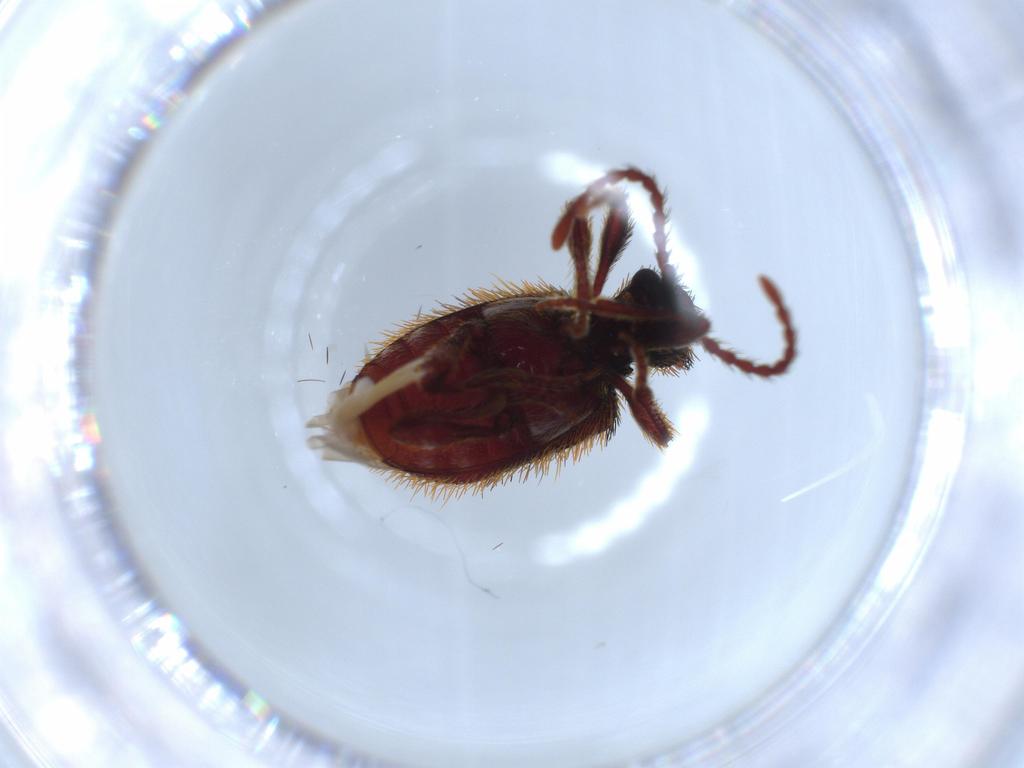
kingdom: Animalia
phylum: Arthropoda
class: Insecta
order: Coleoptera
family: Ptinidae
